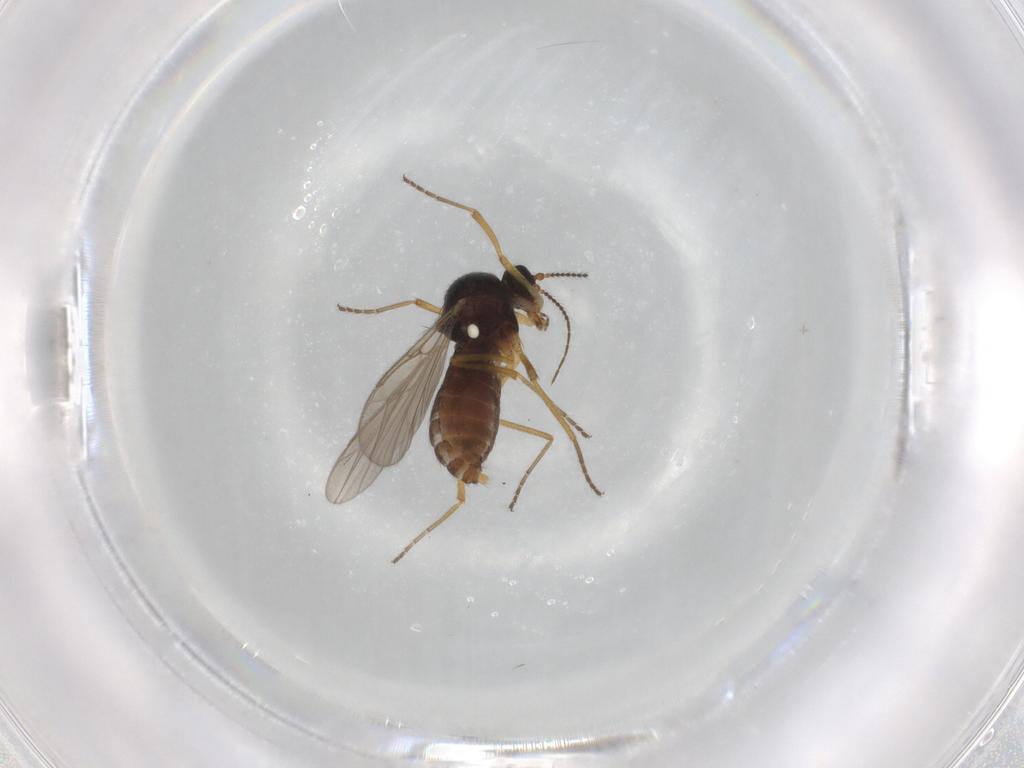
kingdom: Animalia
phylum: Arthropoda
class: Insecta
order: Diptera
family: Ceratopogonidae
